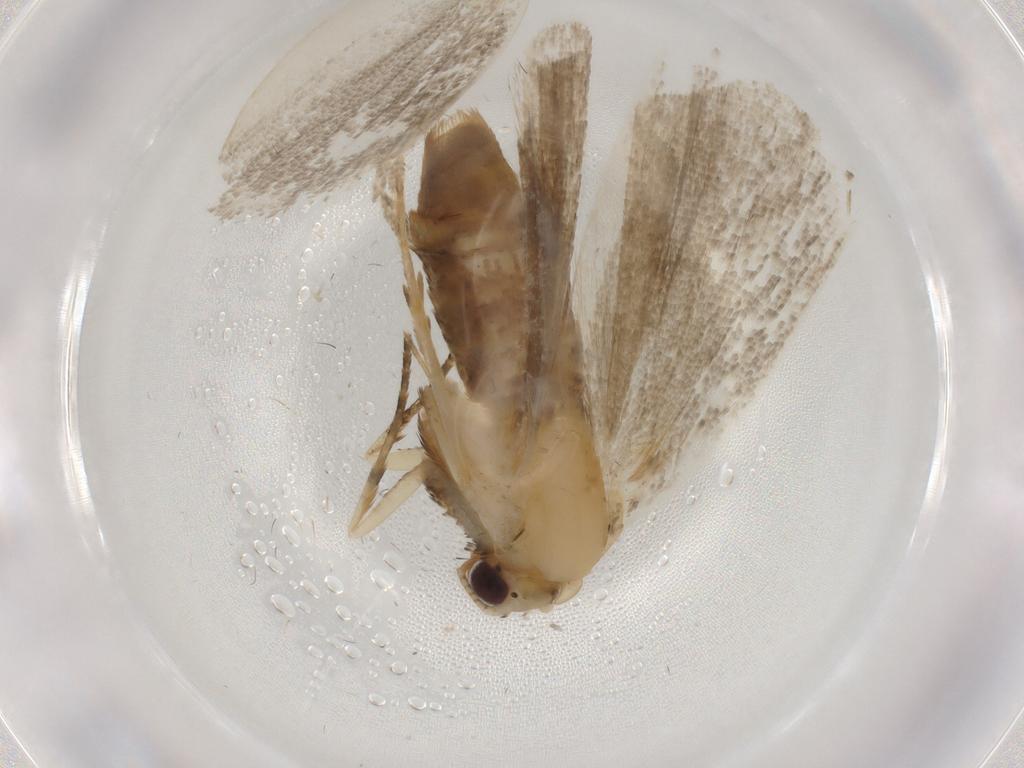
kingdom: Animalia
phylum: Arthropoda
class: Insecta
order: Lepidoptera
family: Erebidae
